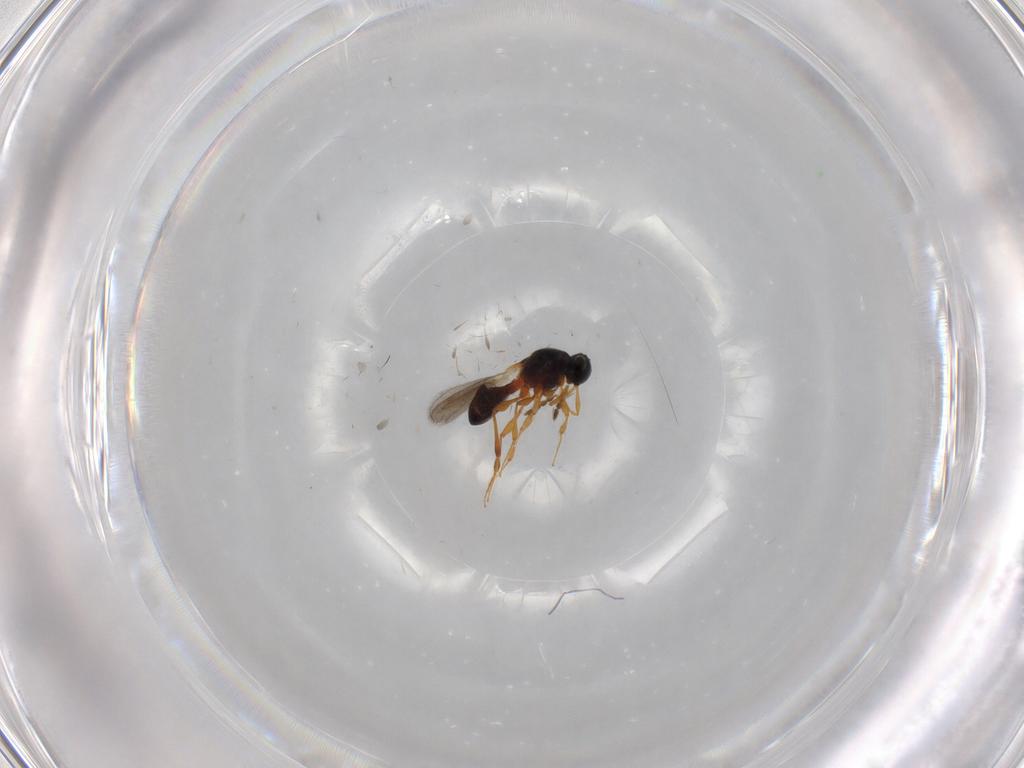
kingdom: Animalia
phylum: Arthropoda
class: Insecta
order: Hymenoptera
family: Platygastridae
